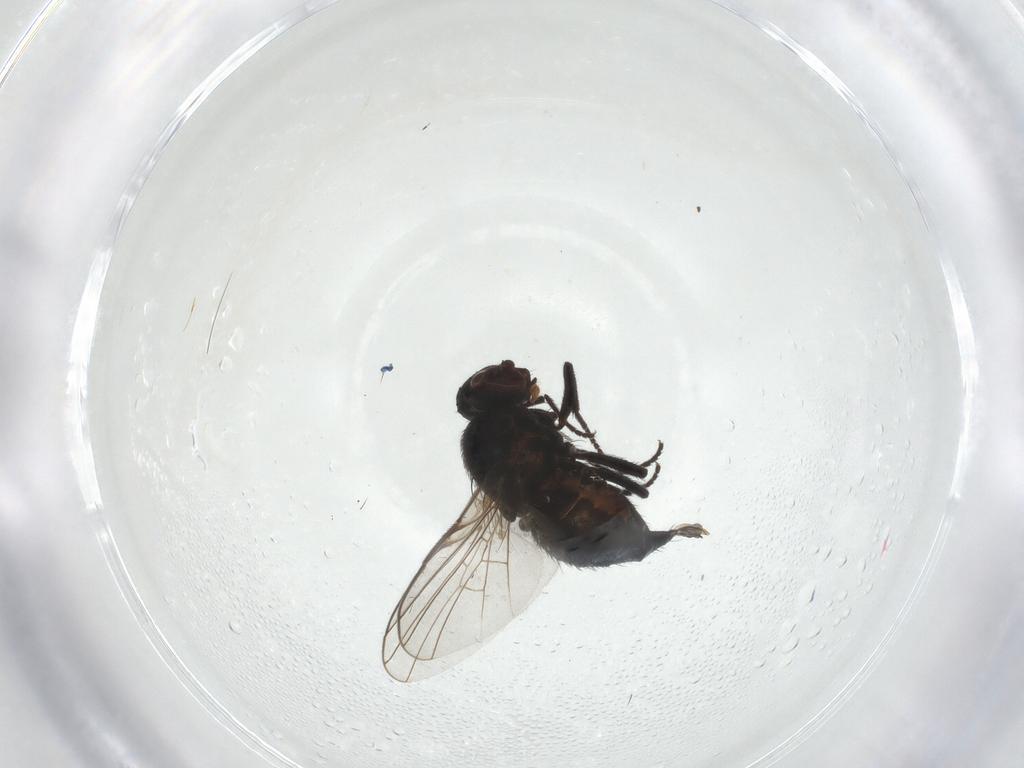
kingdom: Animalia
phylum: Arthropoda
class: Insecta
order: Diptera
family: Agromyzidae
